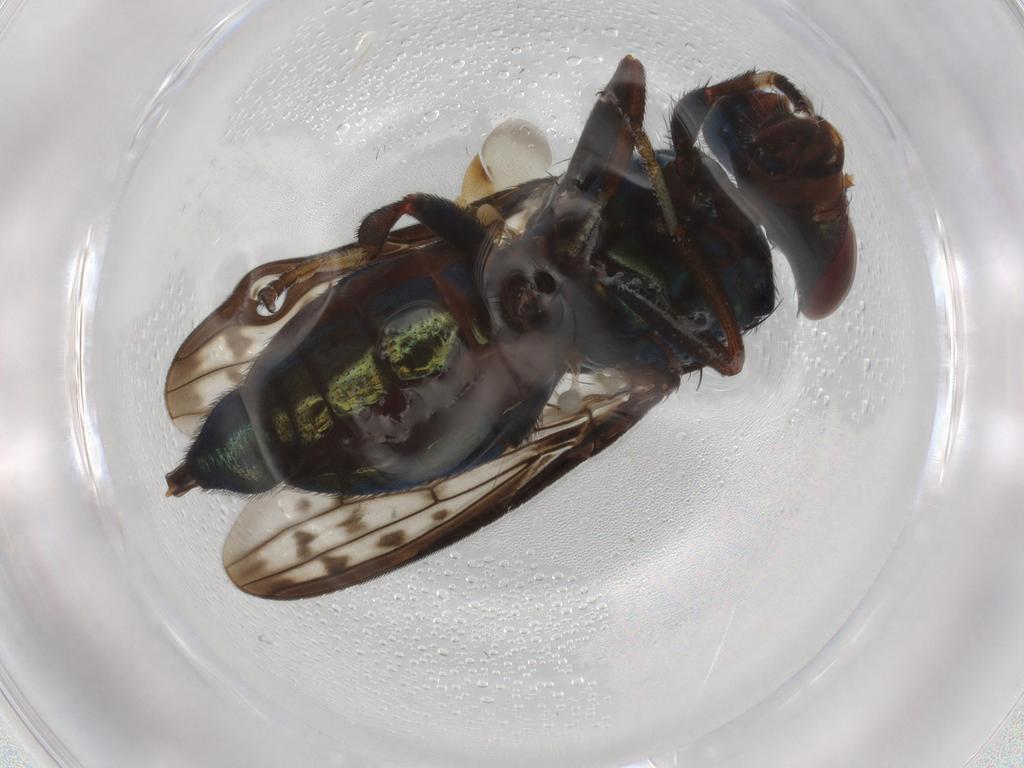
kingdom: Animalia
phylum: Arthropoda
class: Insecta
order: Diptera
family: Ulidiidae
